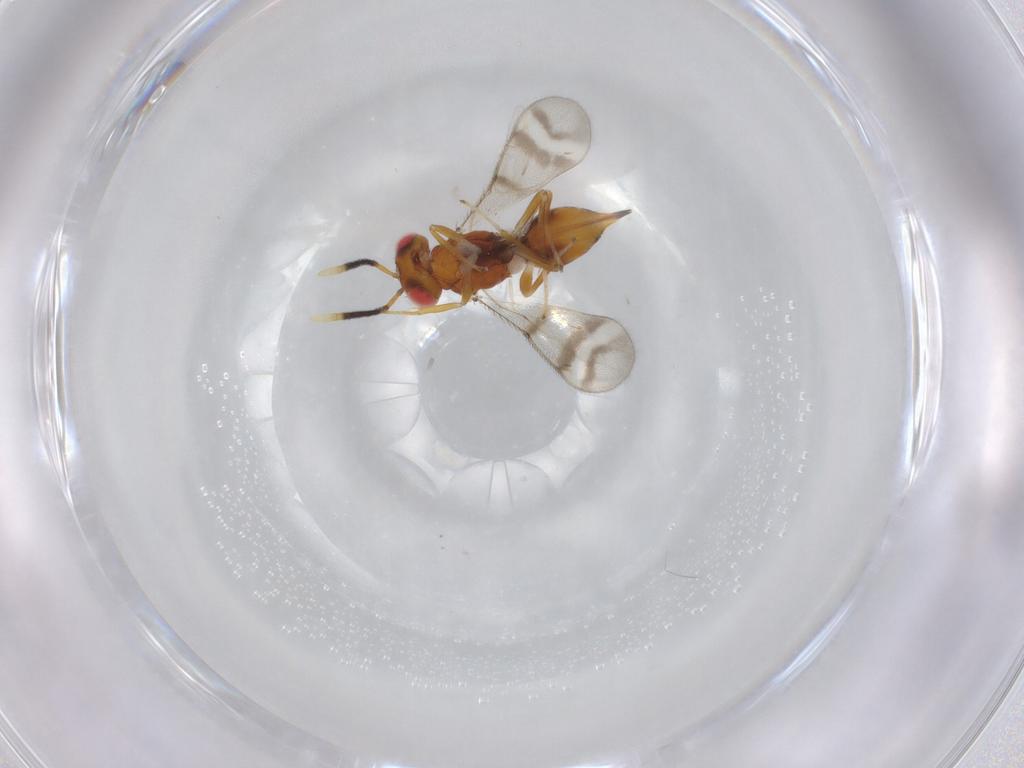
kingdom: Animalia
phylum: Arthropoda
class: Insecta
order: Hymenoptera
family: Diparidae
